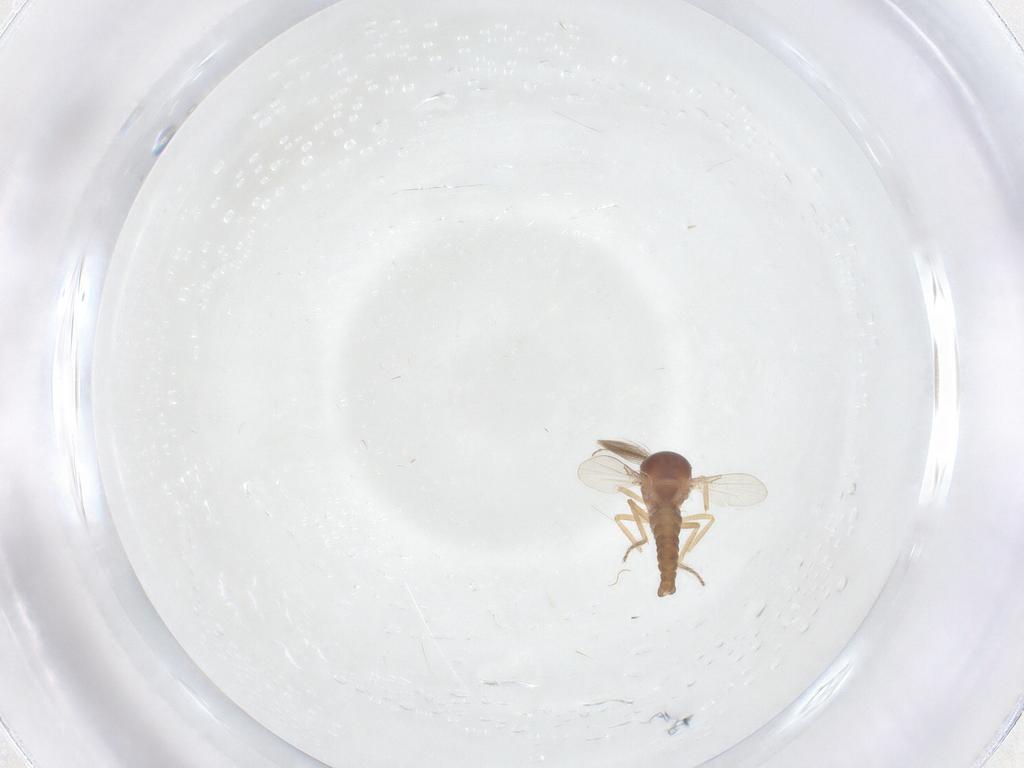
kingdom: Animalia
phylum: Arthropoda
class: Insecta
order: Diptera
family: Ceratopogonidae
